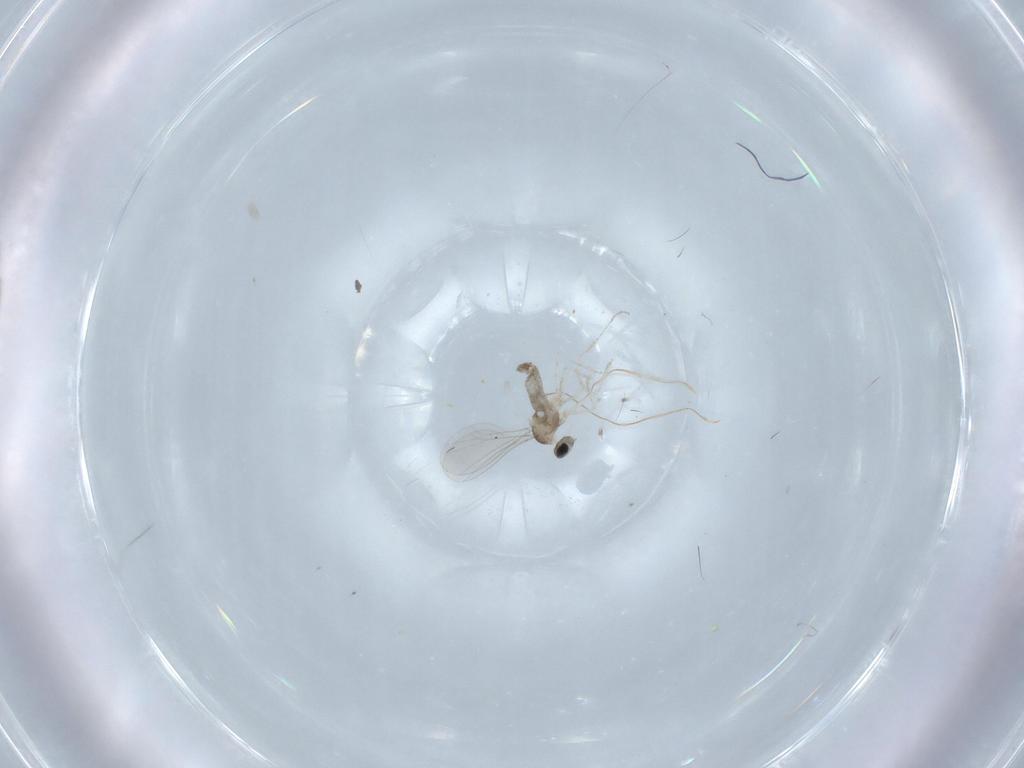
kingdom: Animalia
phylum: Arthropoda
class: Insecta
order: Diptera
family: Cecidomyiidae
